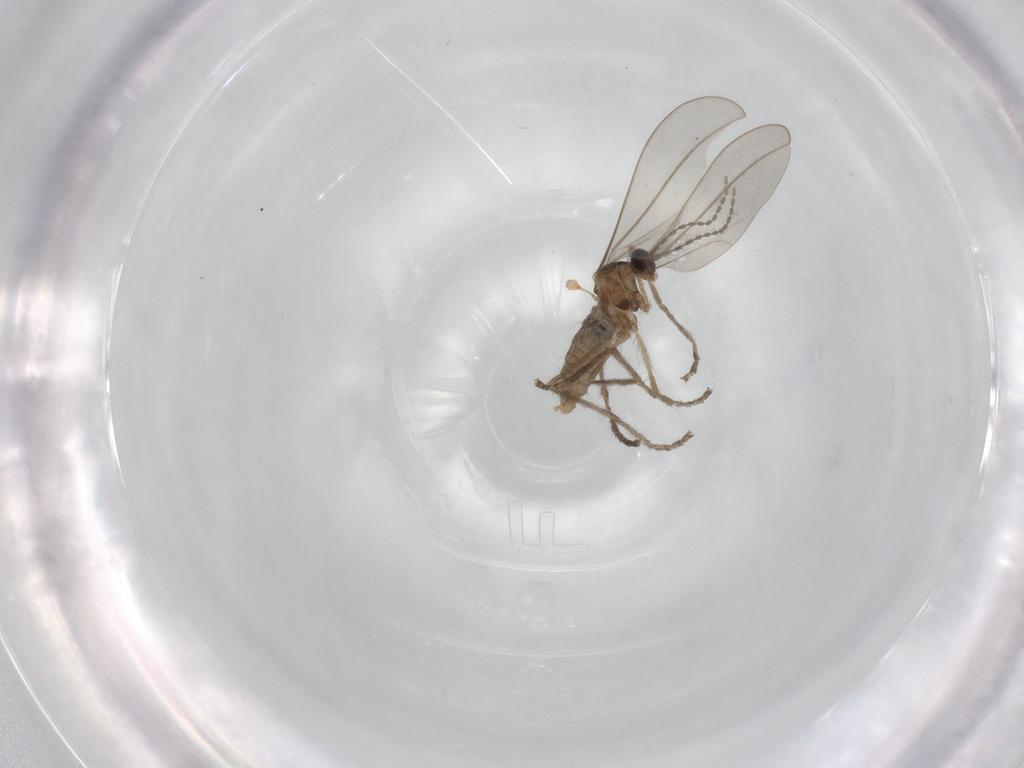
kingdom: Animalia
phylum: Arthropoda
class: Insecta
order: Diptera
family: Cecidomyiidae
